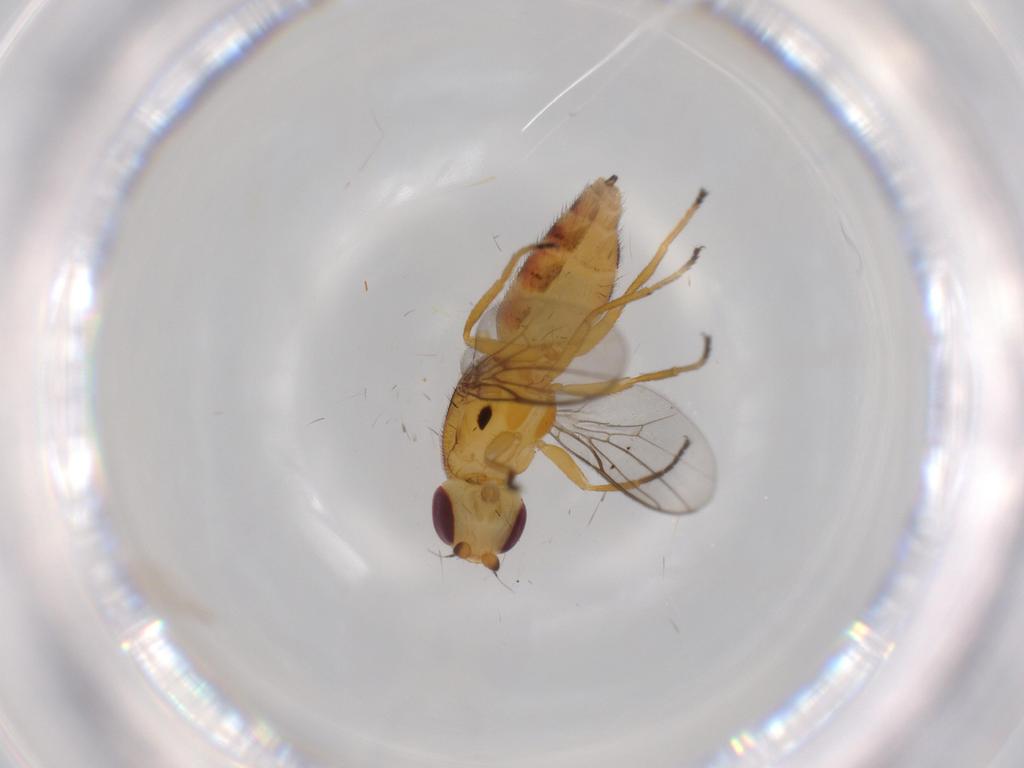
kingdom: Animalia
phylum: Arthropoda
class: Insecta
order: Diptera
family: Chloropidae
